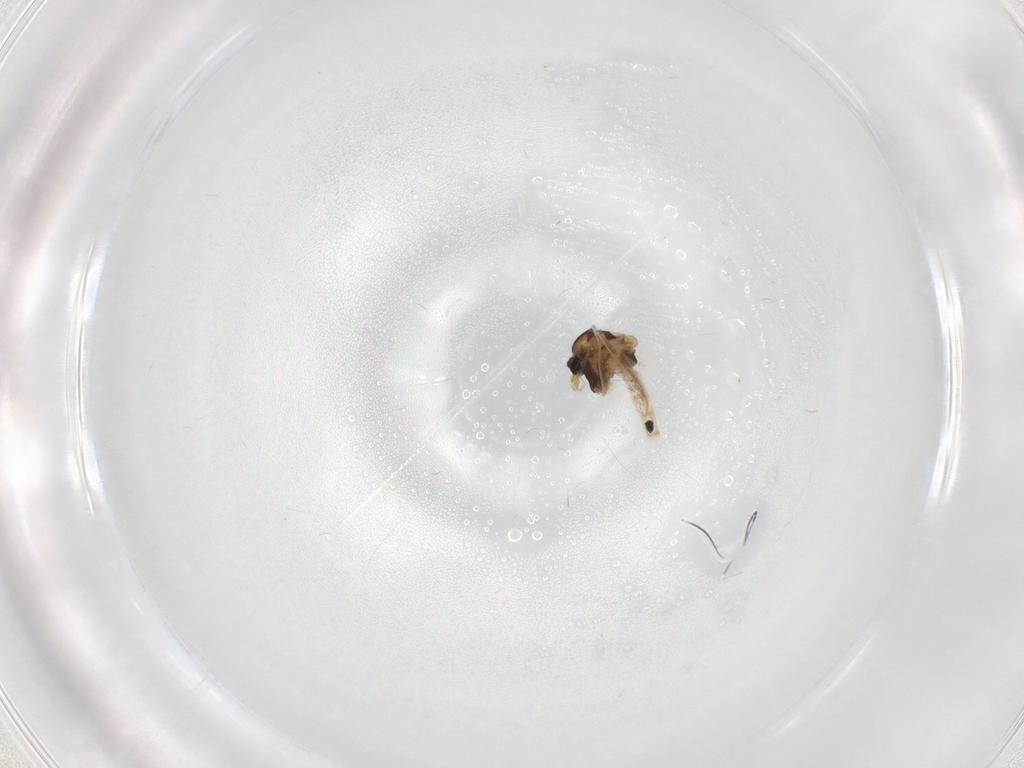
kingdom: Animalia
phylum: Arthropoda
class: Insecta
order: Diptera
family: Chironomidae
